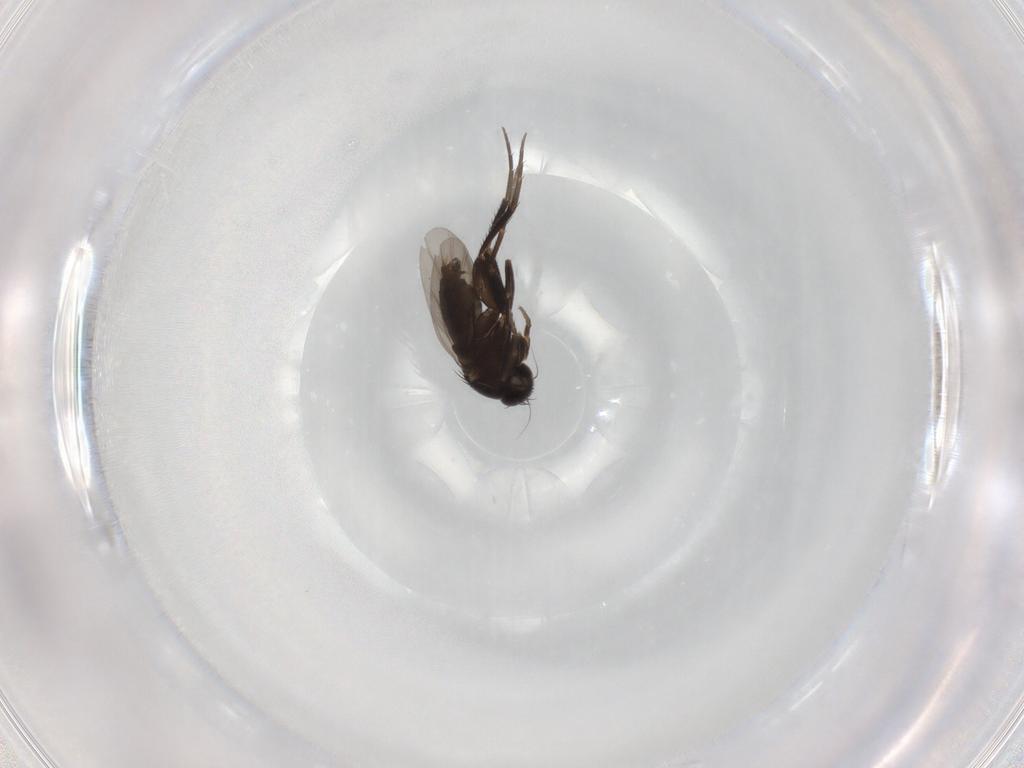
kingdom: Animalia
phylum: Arthropoda
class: Insecta
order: Diptera
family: Phoridae
